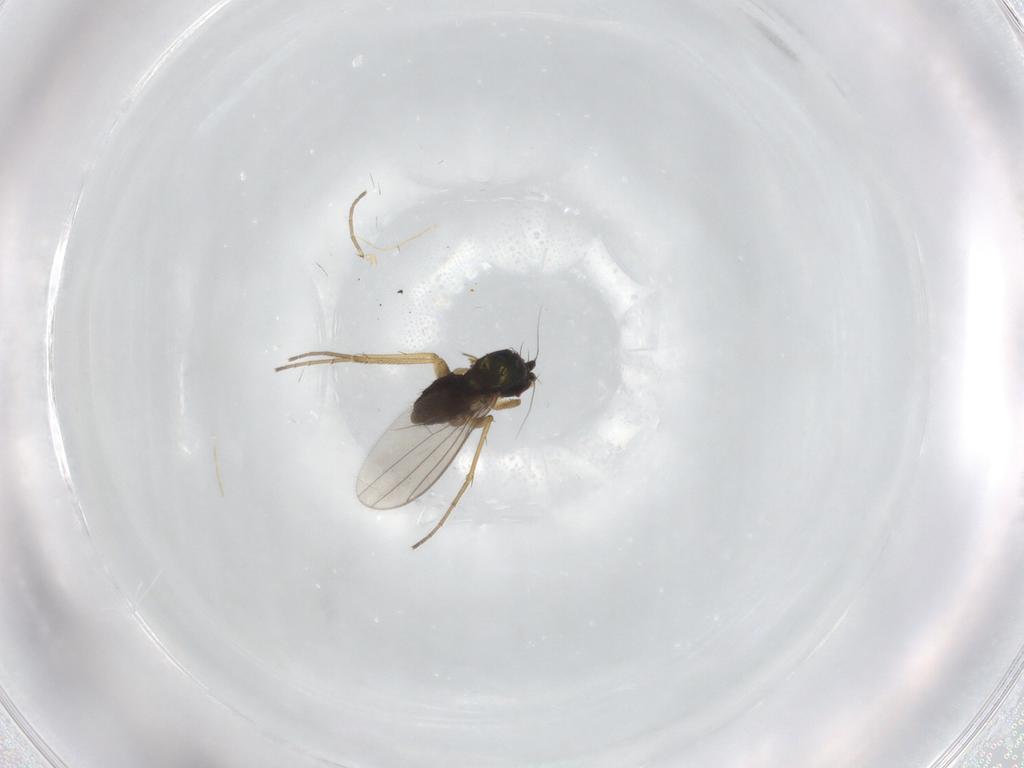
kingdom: Animalia
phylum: Arthropoda
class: Insecta
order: Diptera
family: Dolichopodidae
